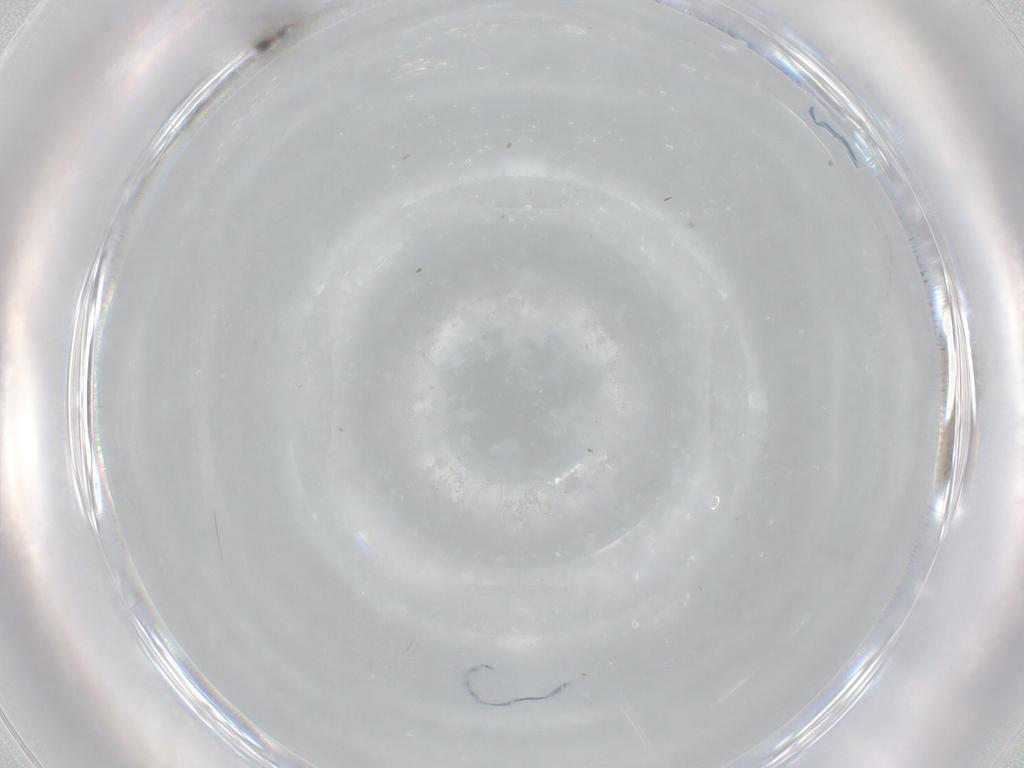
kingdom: Animalia
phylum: Arthropoda
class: Insecta
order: Diptera
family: Phoridae
